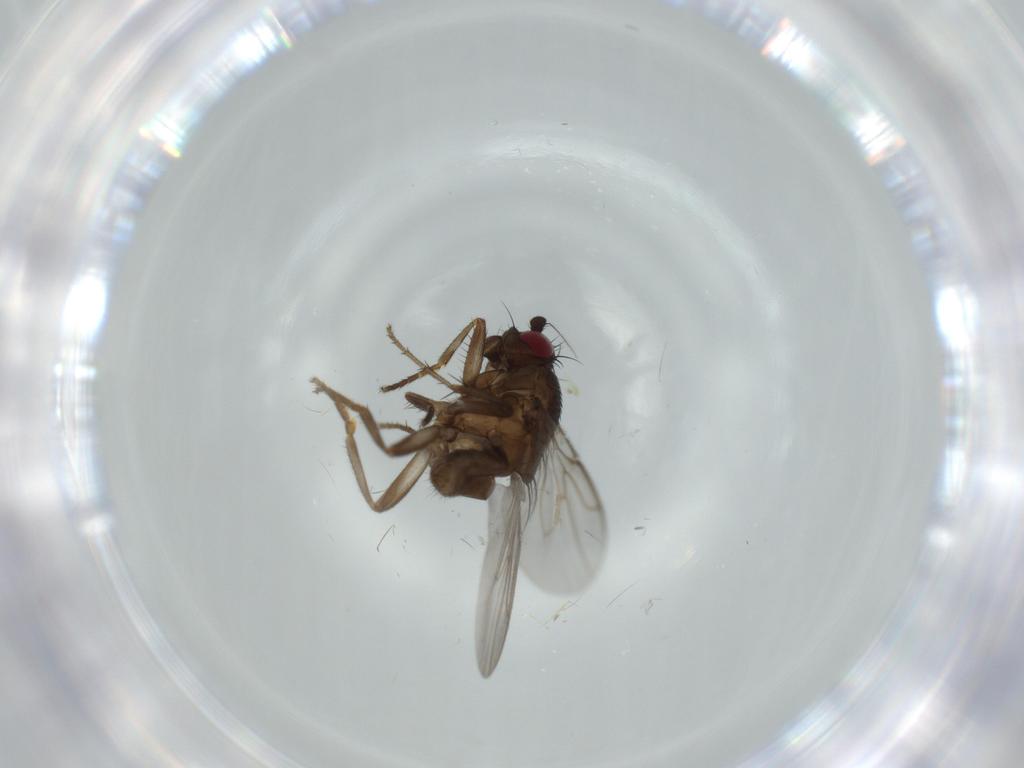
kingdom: Animalia
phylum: Arthropoda
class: Insecta
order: Diptera
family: Sphaeroceridae
